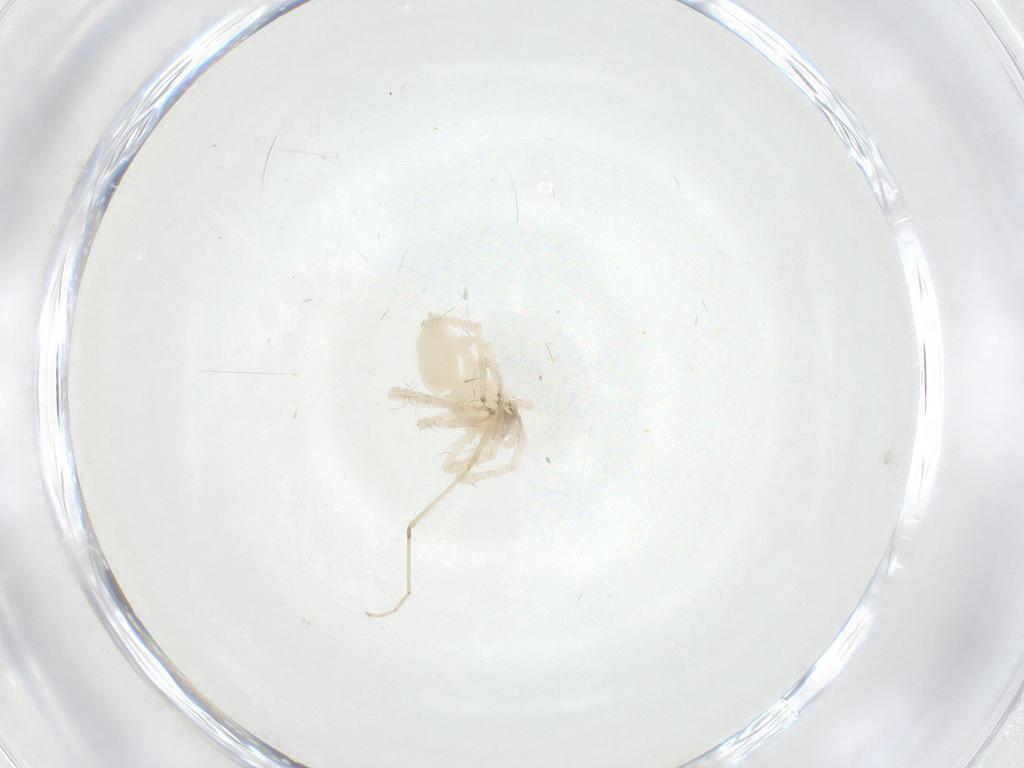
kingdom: Animalia
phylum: Arthropoda
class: Arachnida
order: Araneae
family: Anyphaenidae
